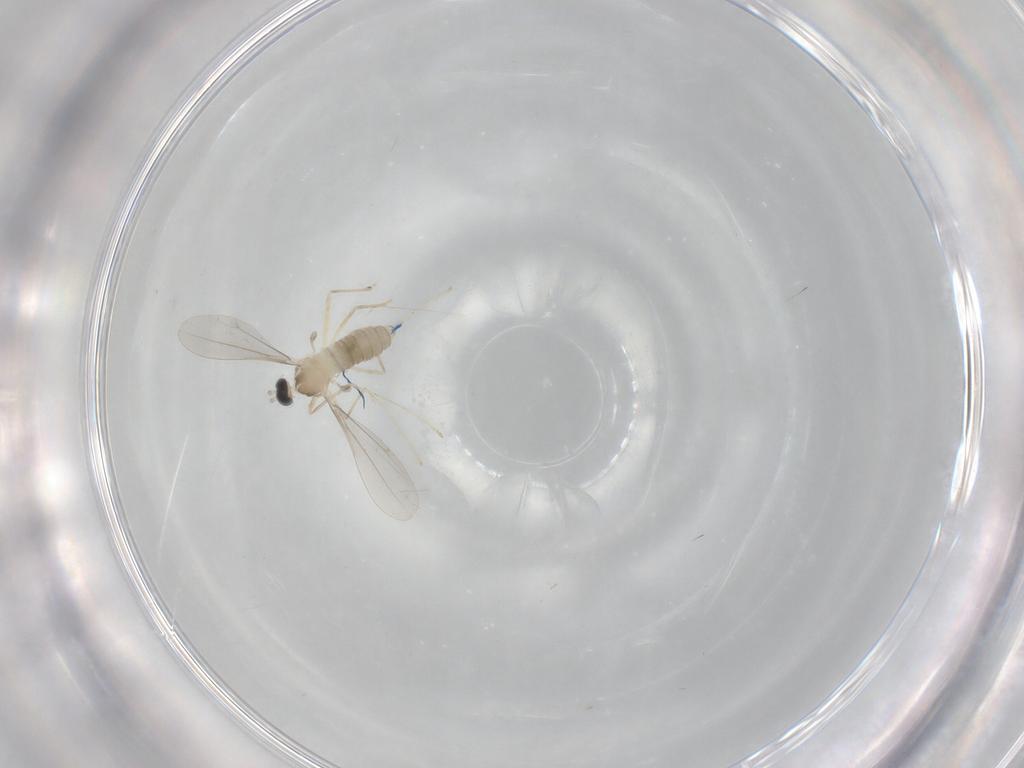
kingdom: Animalia
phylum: Arthropoda
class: Insecta
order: Diptera
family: Cecidomyiidae
